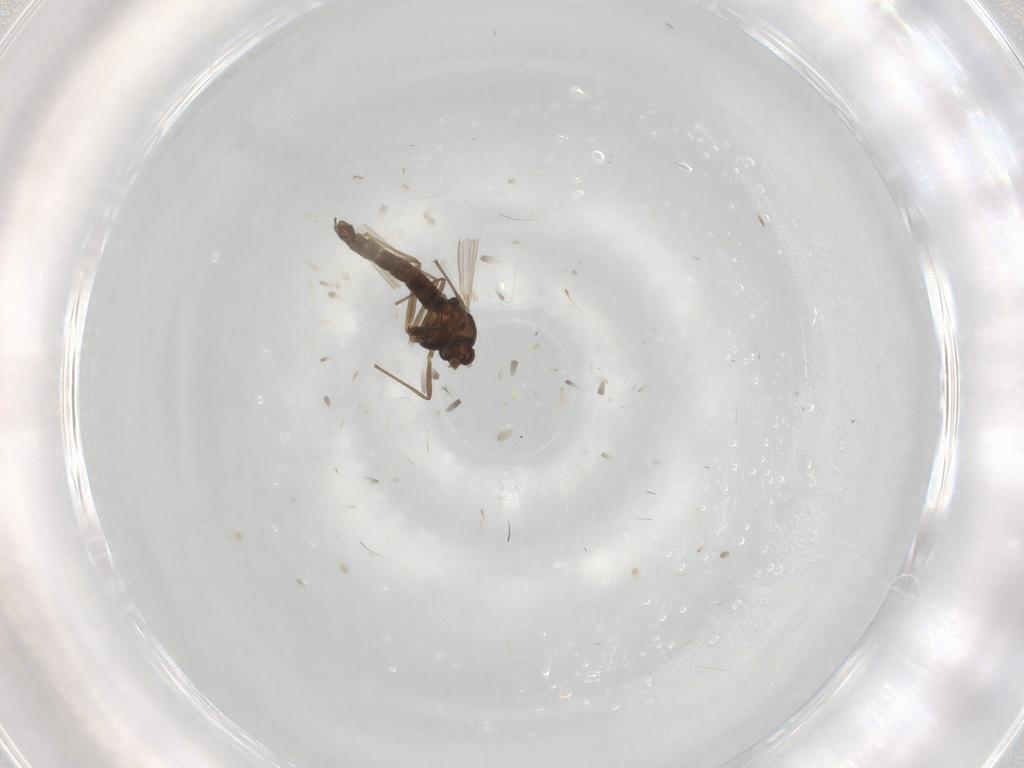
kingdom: Animalia
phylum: Arthropoda
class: Insecta
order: Diptera
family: Chironomidae
